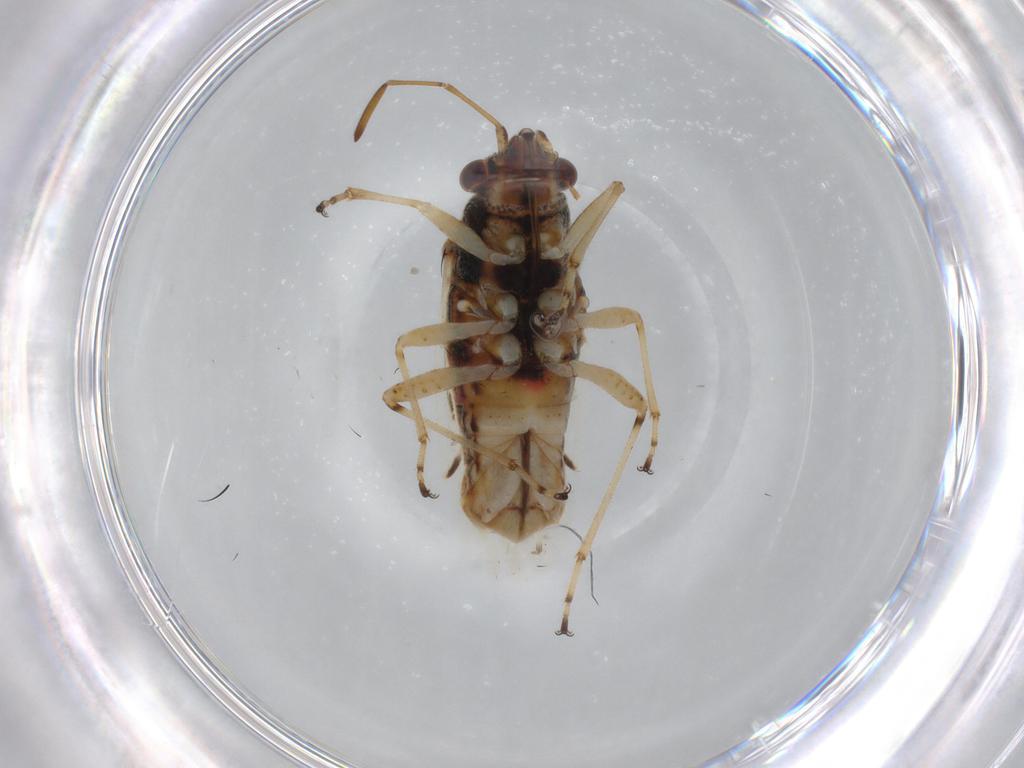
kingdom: Animalia
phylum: Arthropoda
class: Insecta
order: Hemiptera
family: Lygaeidae
